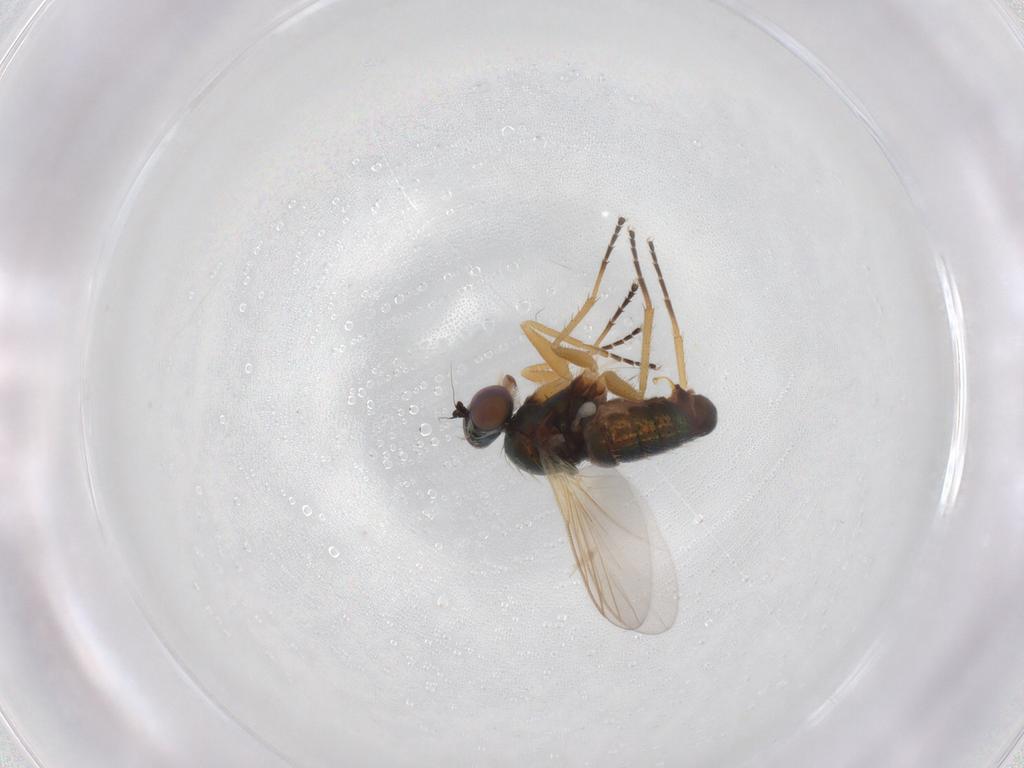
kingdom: Animalia
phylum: Arthropoda
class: Insecta
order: Diptera
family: Dolichopodidae
